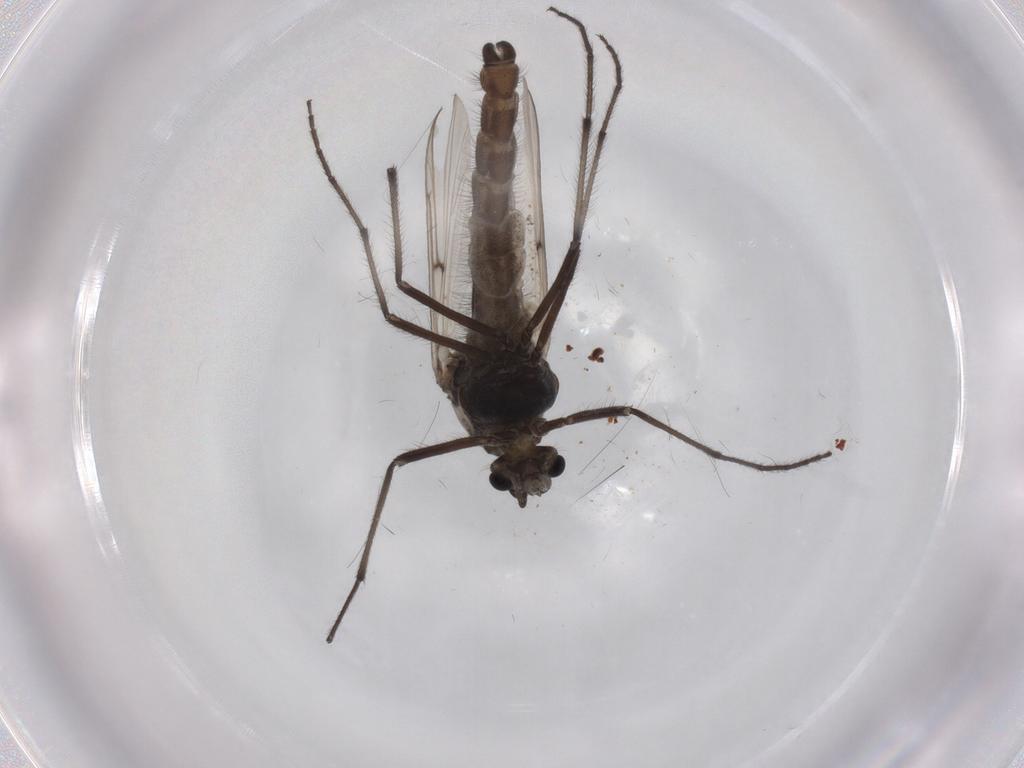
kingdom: Animalia
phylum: Arthropoda
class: Insecta
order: Diptera
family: Chironomidae
